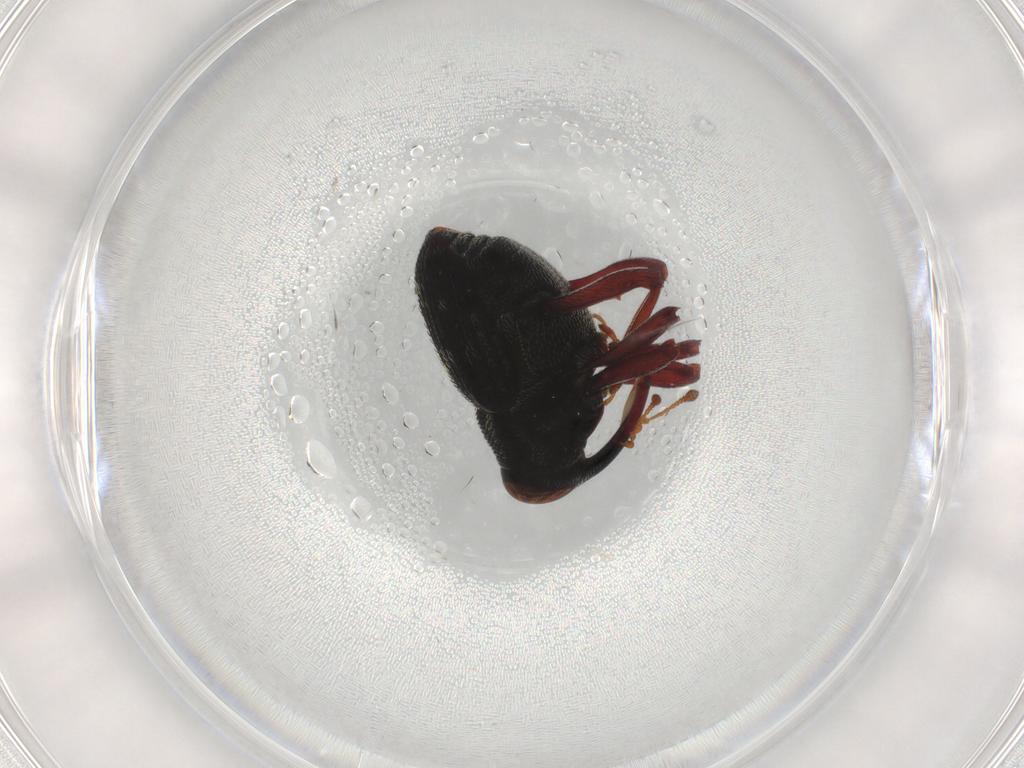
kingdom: Animalia
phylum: Arthropoda
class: Insecta
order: Coleoptera
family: Curculionidae
